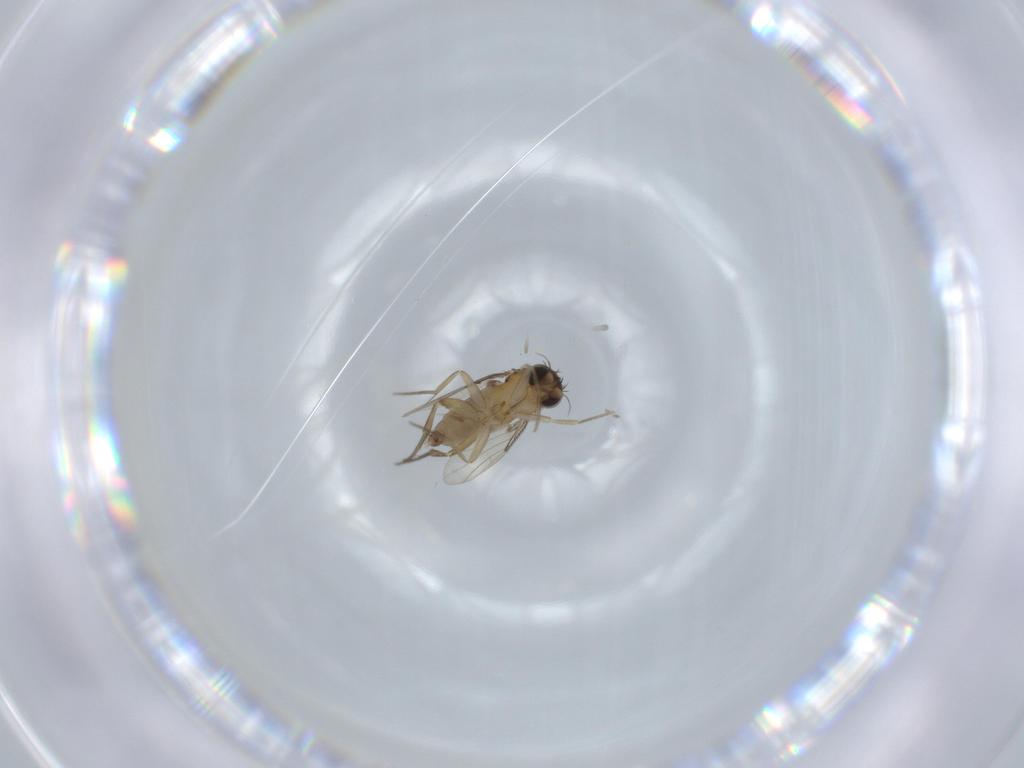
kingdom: Animalia
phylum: Arthropoda
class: Insecta
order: Diptera
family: Phoridae
